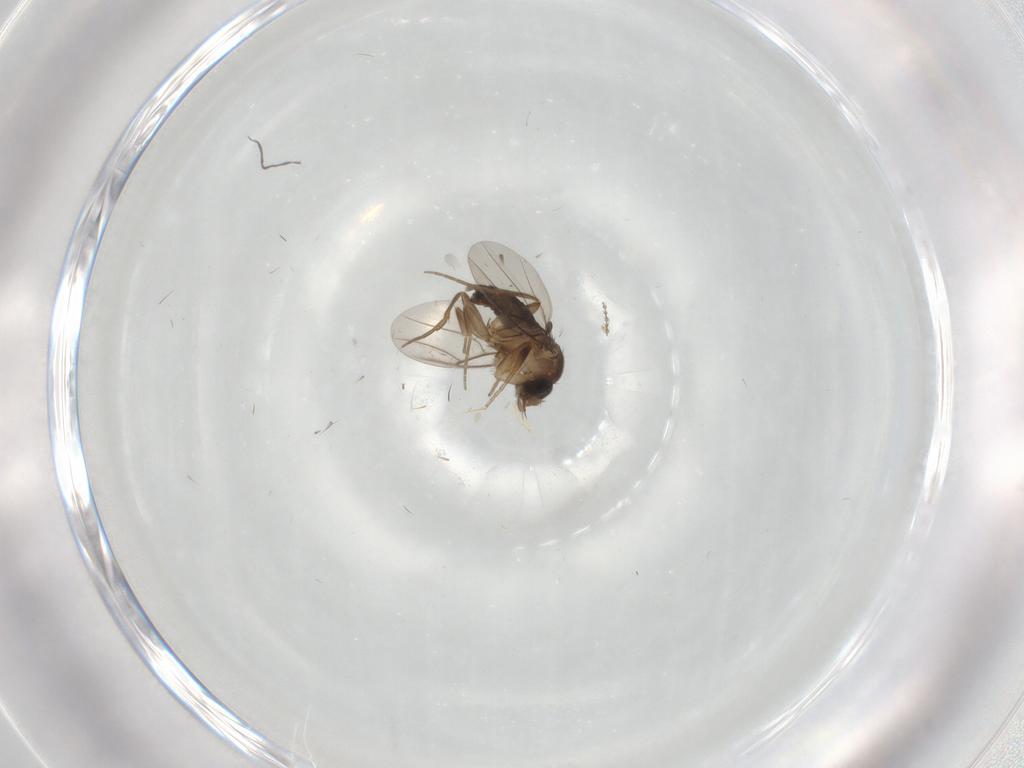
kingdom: Animalia
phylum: Arthropoda
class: Insecta
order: Diptera
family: Phoridae
